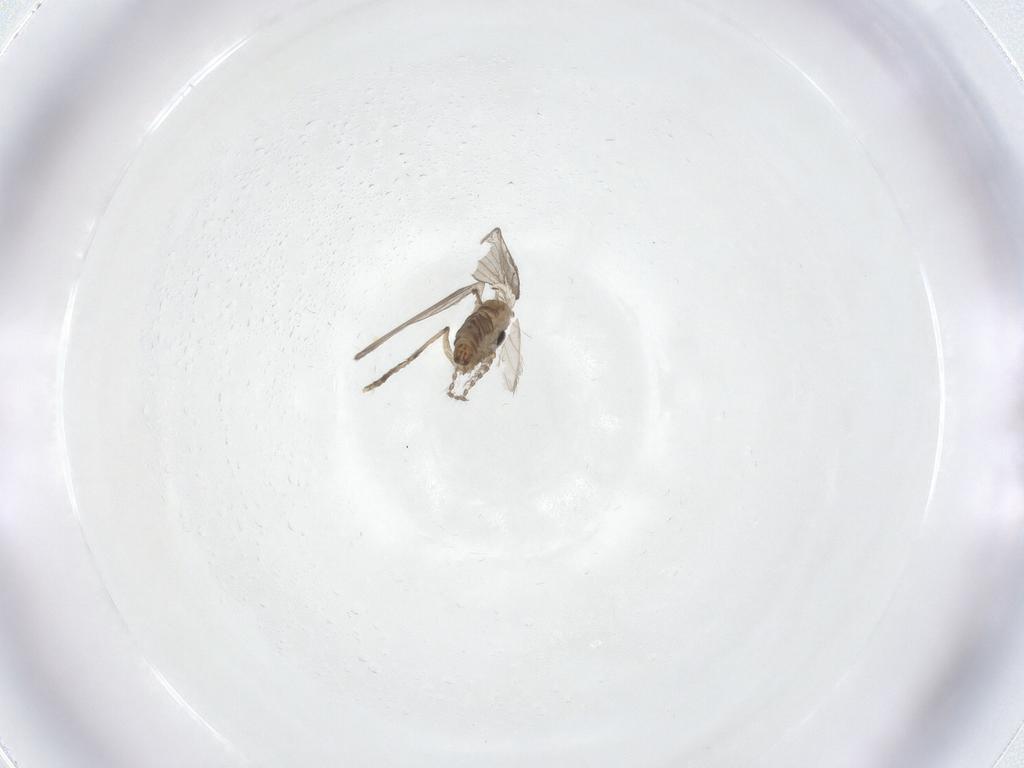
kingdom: Animalia
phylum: Arthropoda
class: Insecta
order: Diptera
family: Psychodidae
